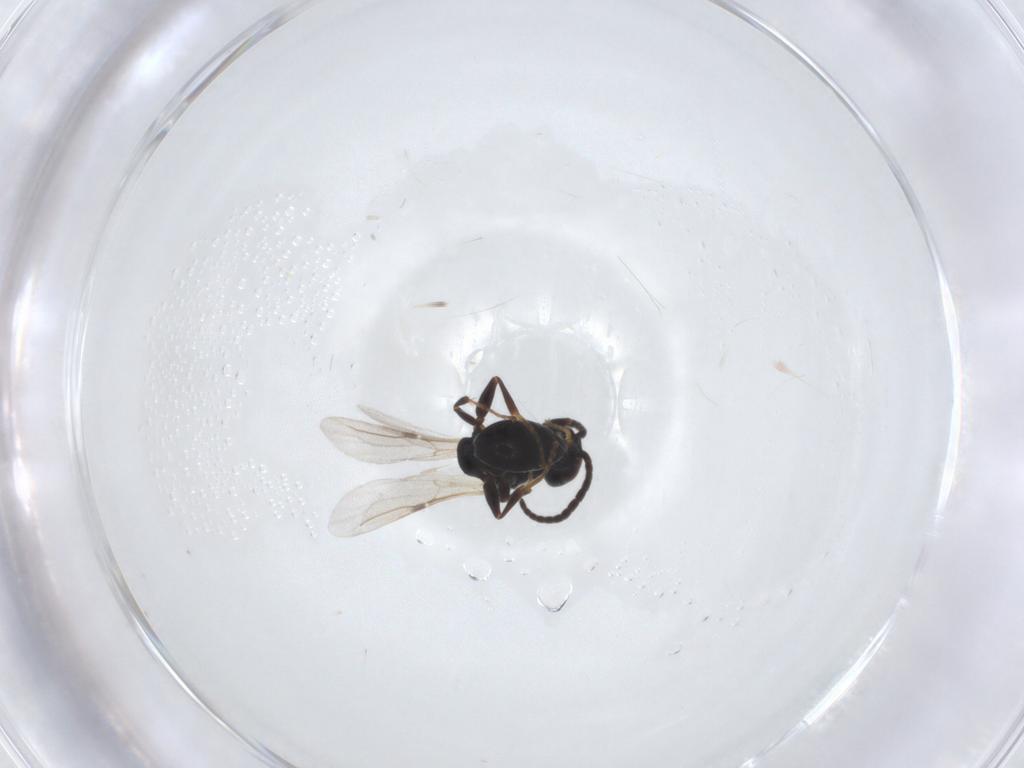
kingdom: Animalia
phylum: Arthropoda
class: Insecta
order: Hymenoptera
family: Bethylidae
